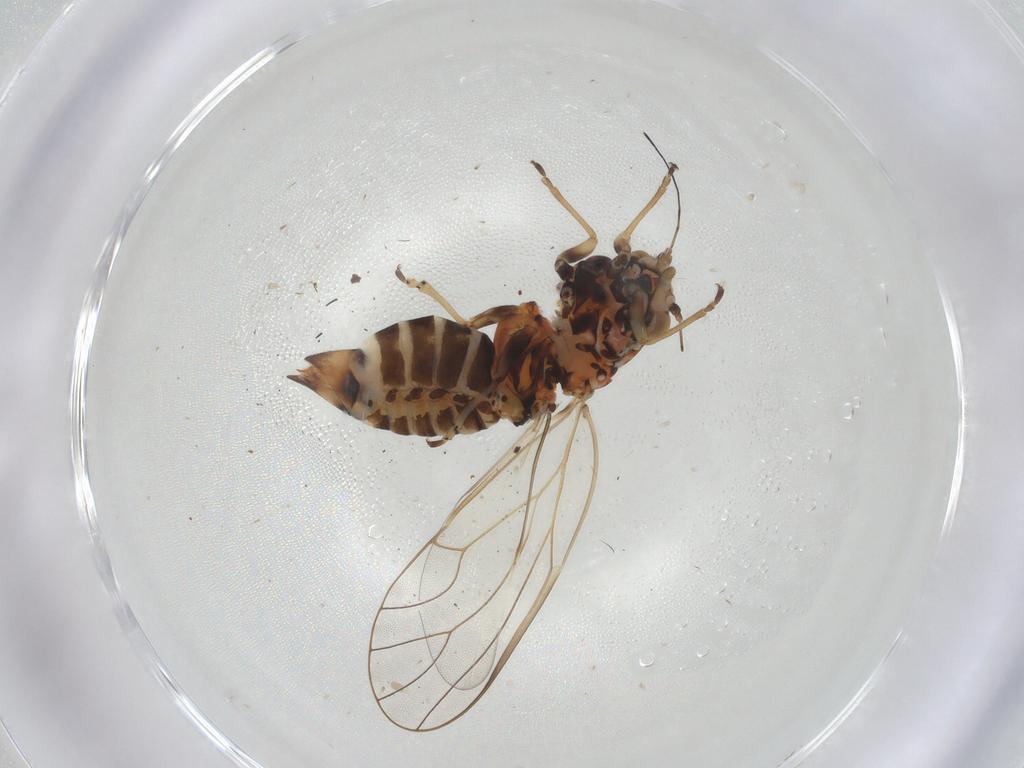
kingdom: Animalia
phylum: Arthropoda
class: Insecta
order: Hemiptera
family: Psyllidae
